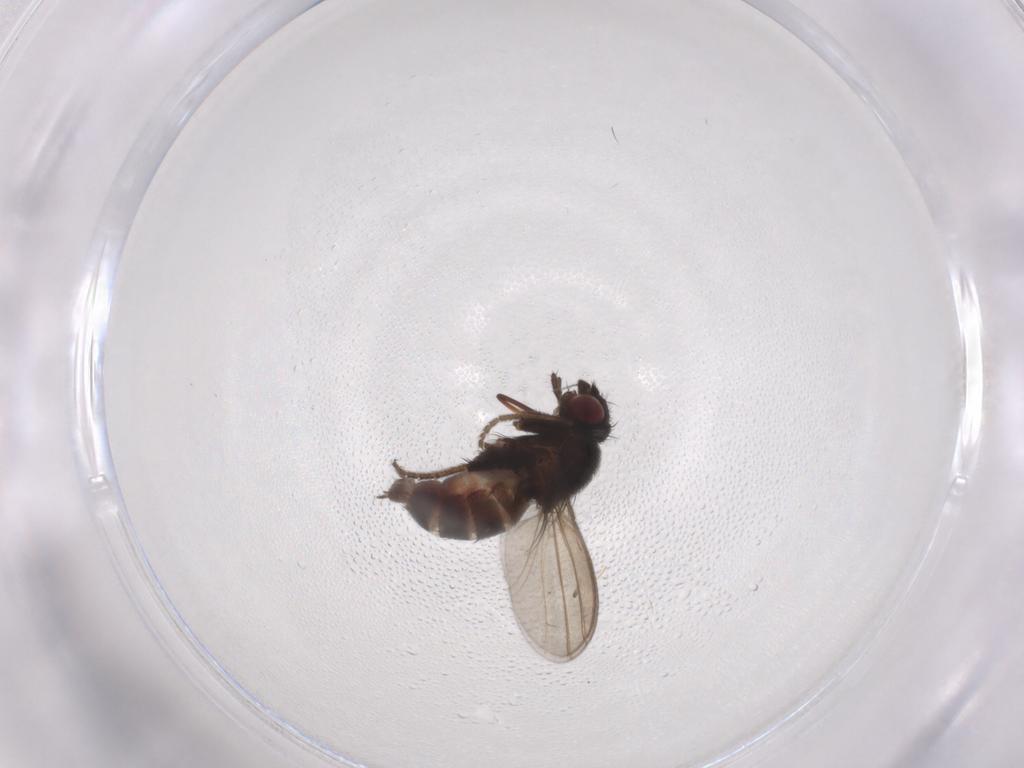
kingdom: Animalia
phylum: Arthropoda
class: Insecta
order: Diptera
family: Milichiidae
